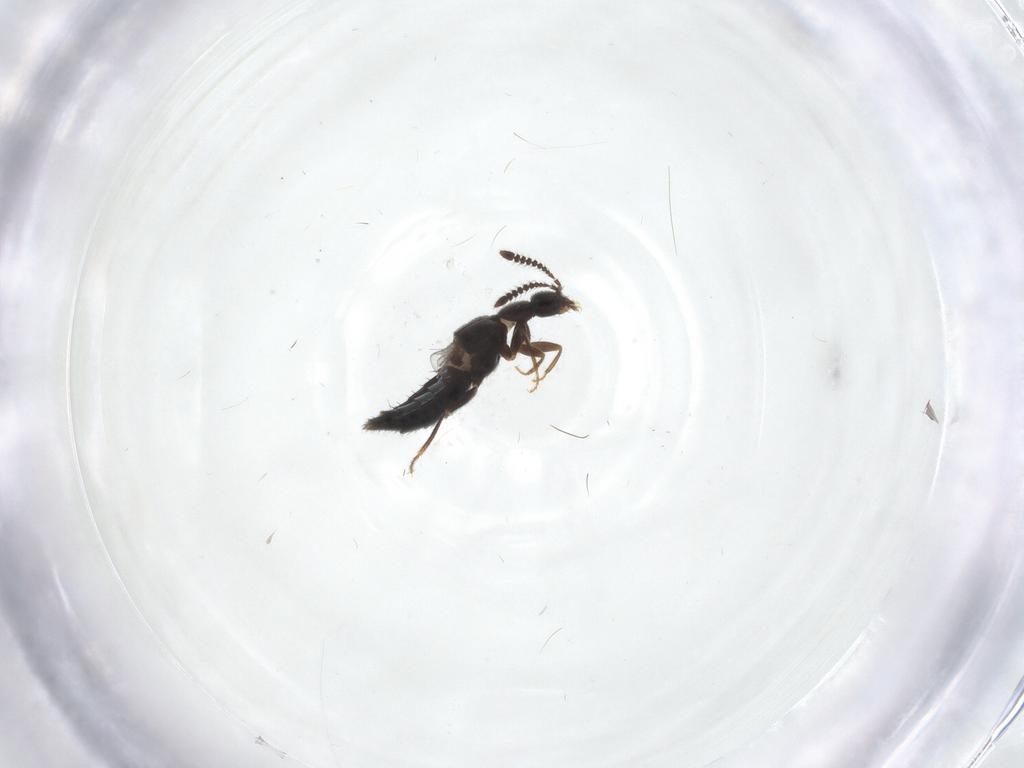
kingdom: Animalia
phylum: Arthropoda
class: Insecta
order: Coleoptera
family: Staphylinidae
